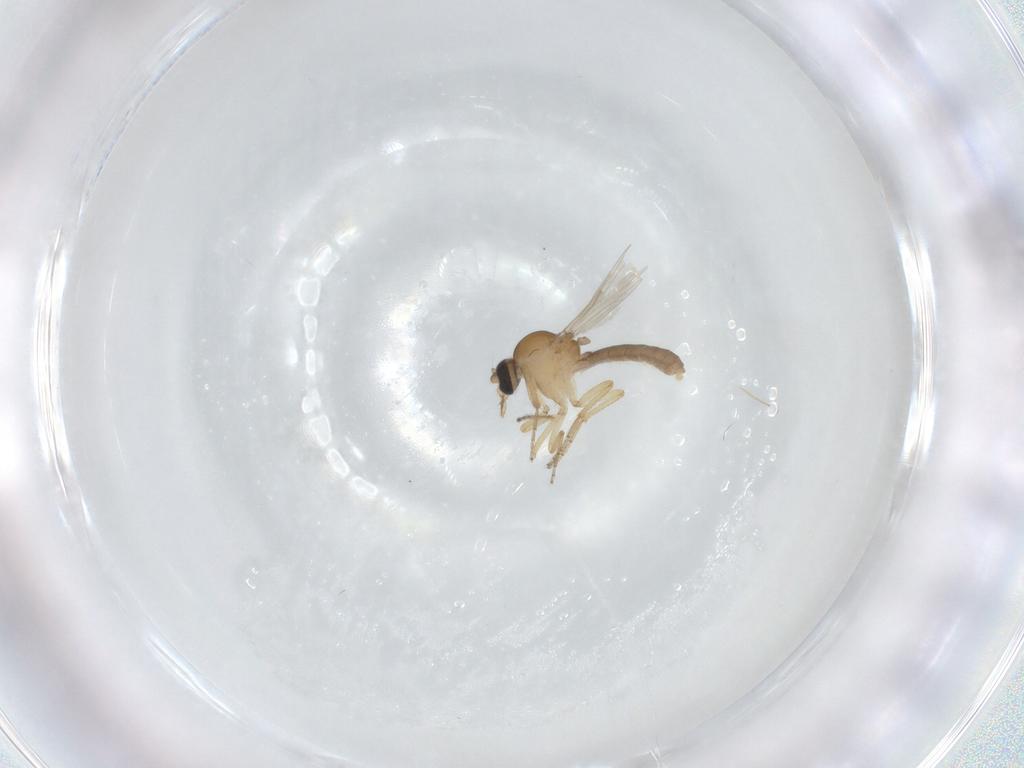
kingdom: Animalia
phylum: Arthropoda
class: Insecta
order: Diptera
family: Ceratopogonidae
